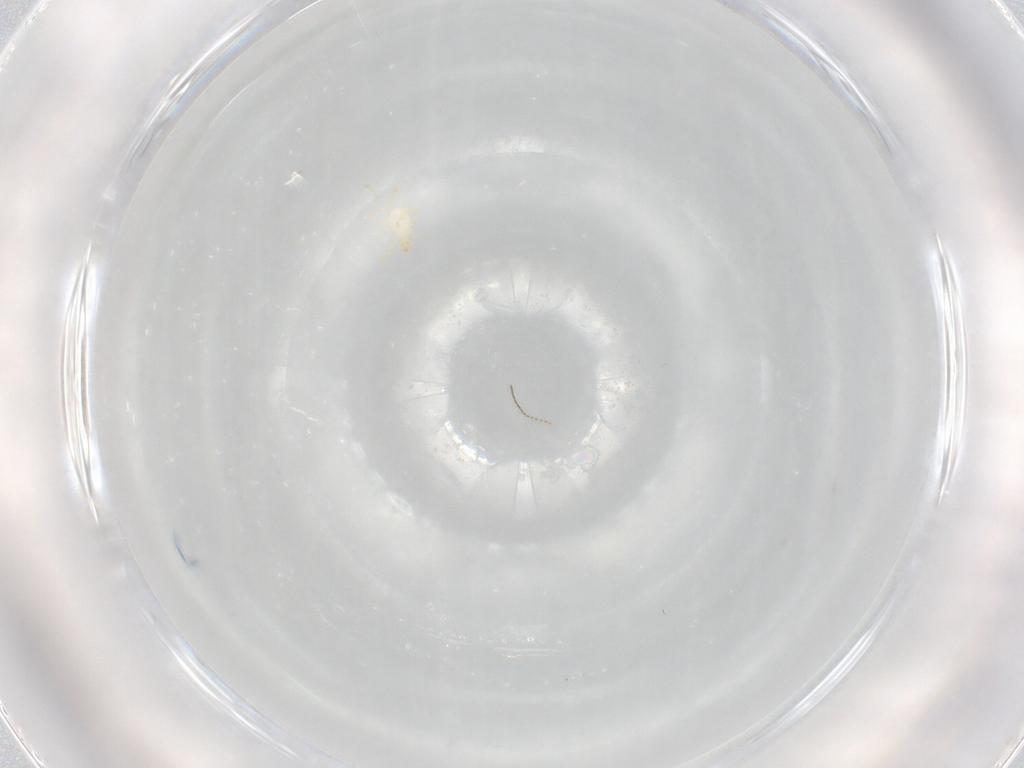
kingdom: Animalia
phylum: Arthropoda
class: Arachnida
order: Trombidiformes
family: Erythraeidae
